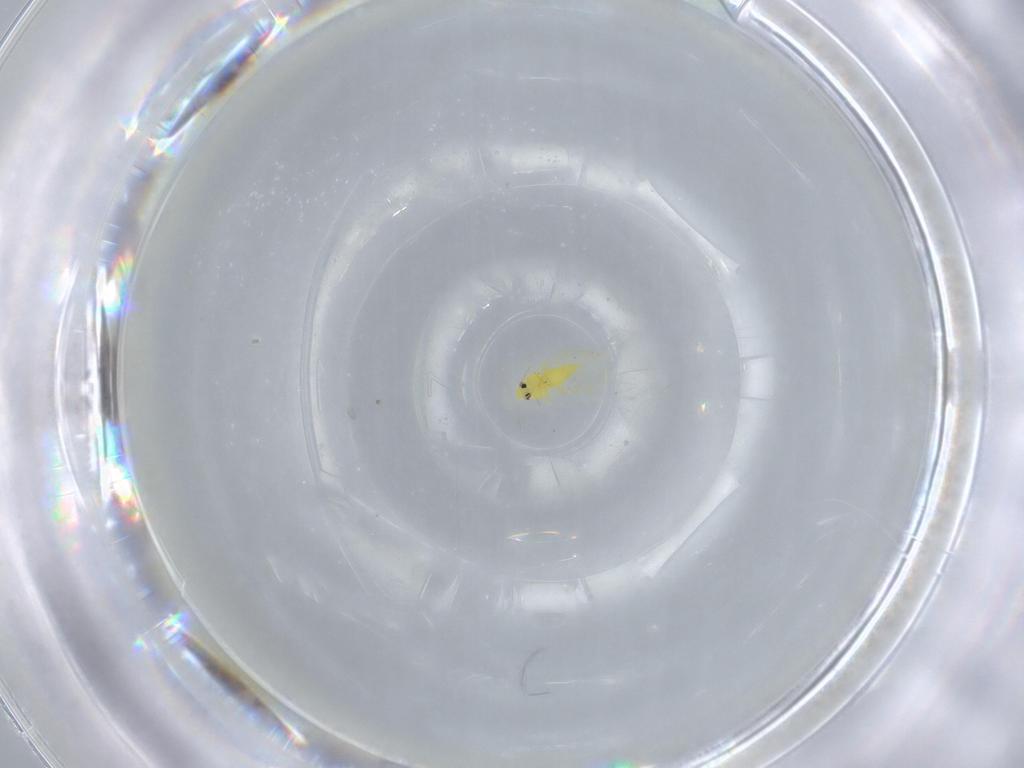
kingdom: Animalia
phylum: Arthropoda
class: Insecta
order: Hemiptera
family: Aleyrodidae
